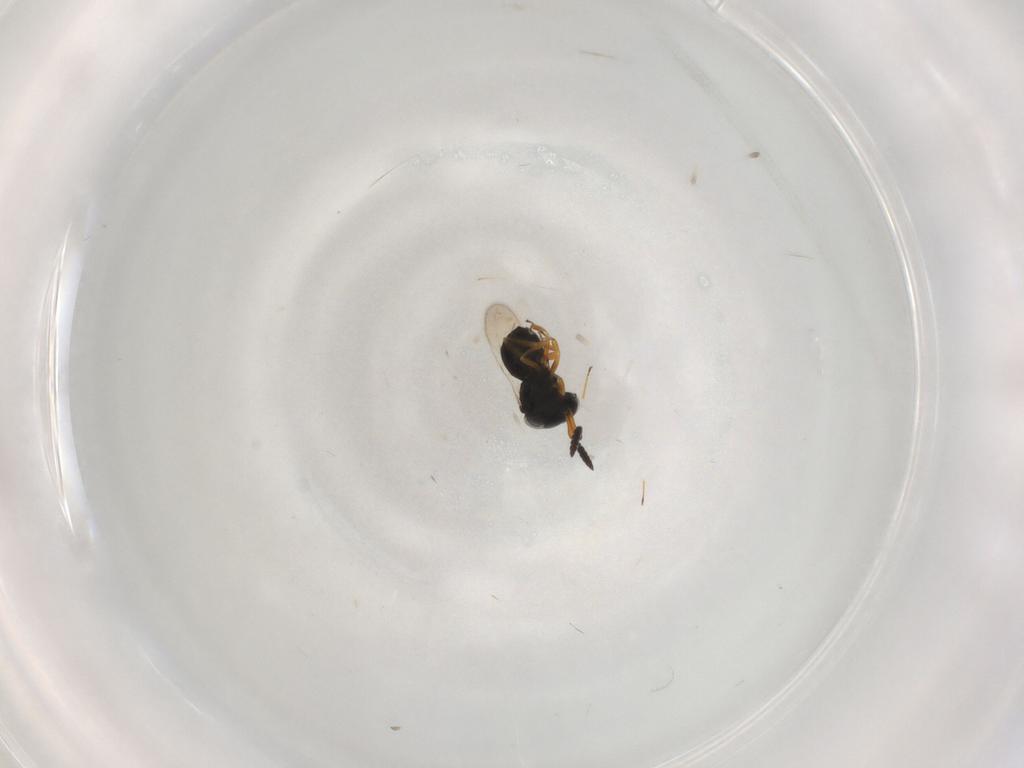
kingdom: Animalia
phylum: Arthropoda
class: Insecta
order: Hymenoptera
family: Scelionidae
